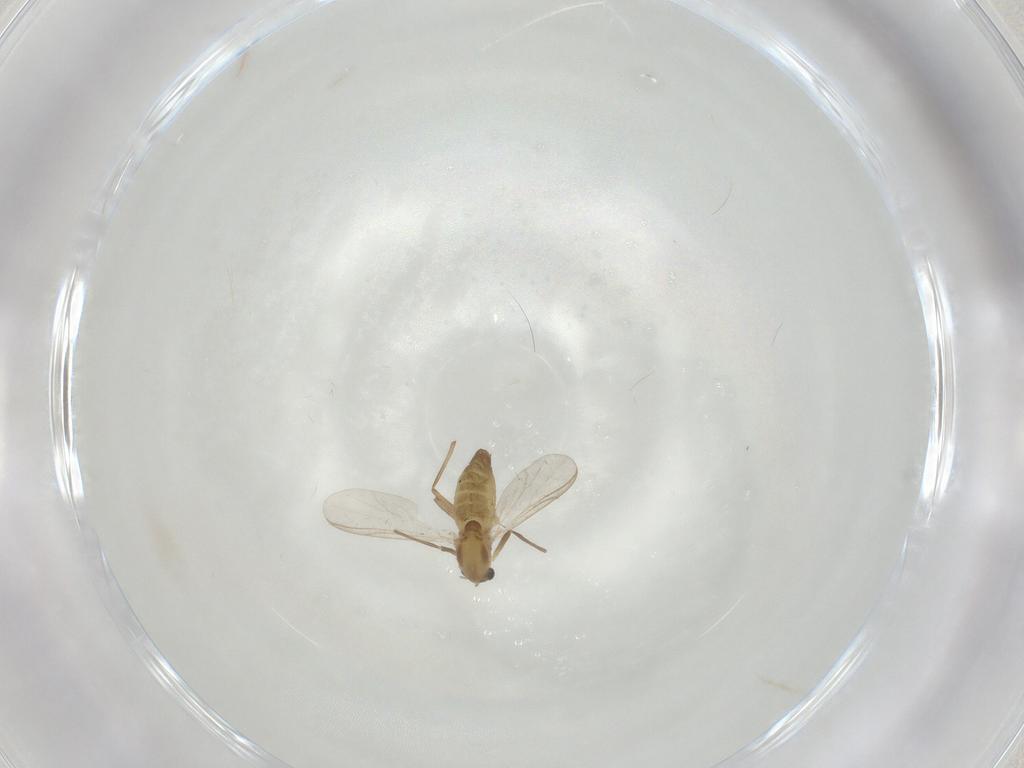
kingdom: Animalia
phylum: Arthropoda
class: Insecta
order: Diptera
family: Chironomidae
